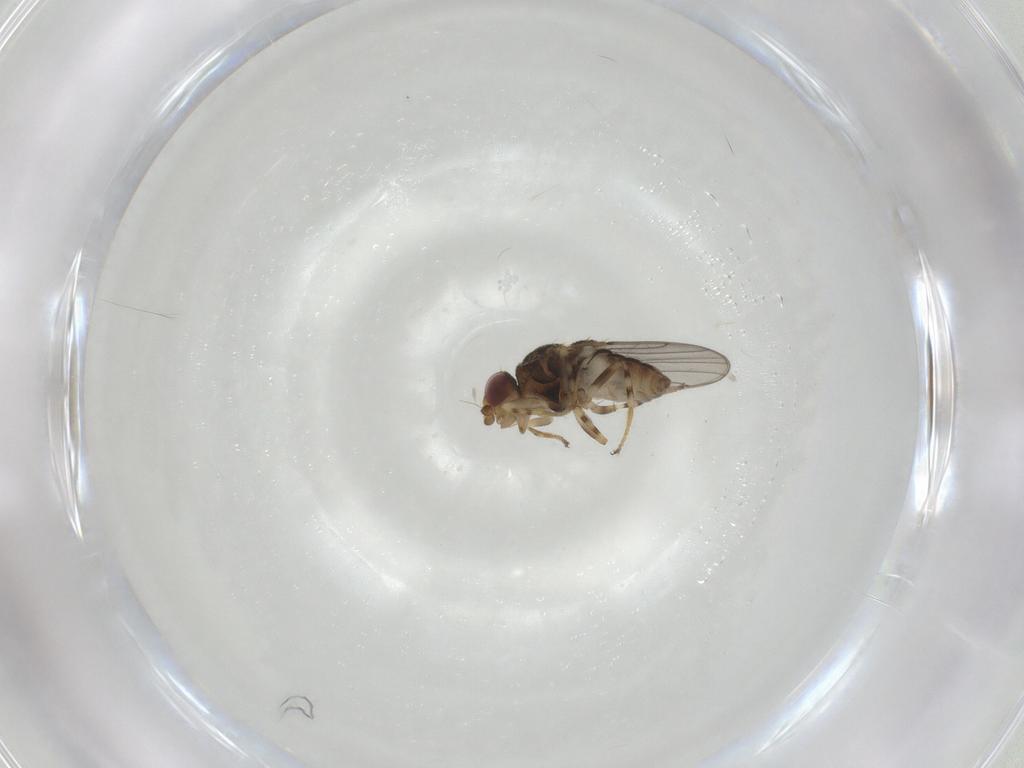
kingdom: Animalia
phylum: Arthropoda
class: Insecta
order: Diptera
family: Chloropidae
